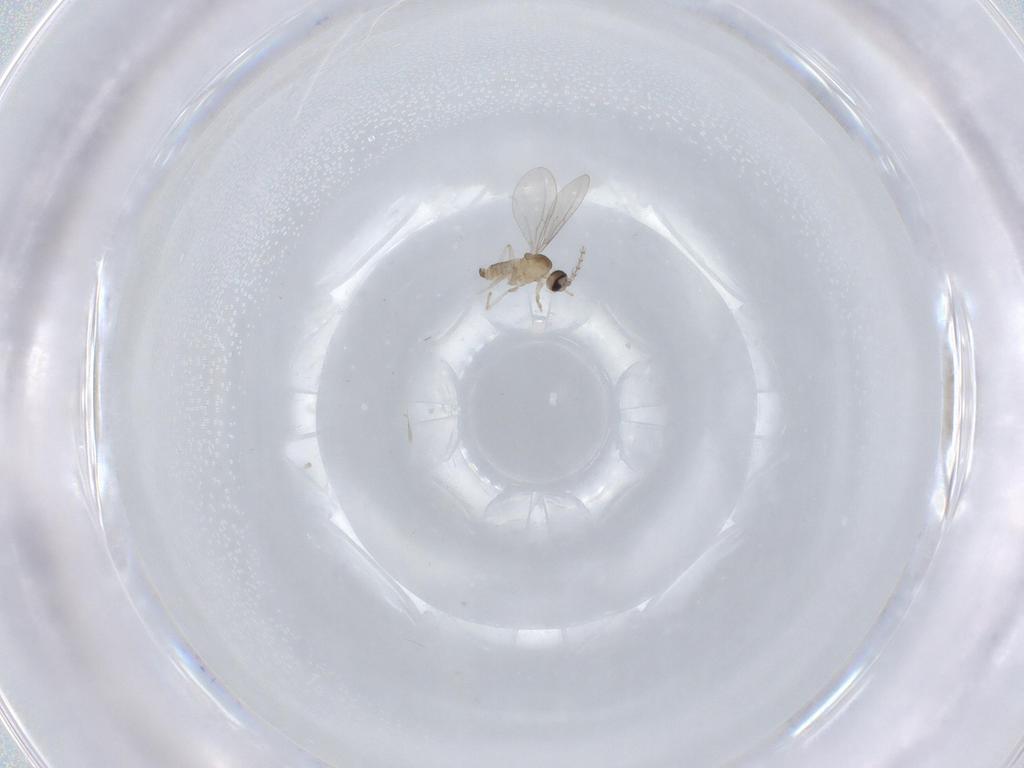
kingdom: Animalia
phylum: Arthropoda
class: Insecta
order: Diptera
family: Cecidomyiidae
